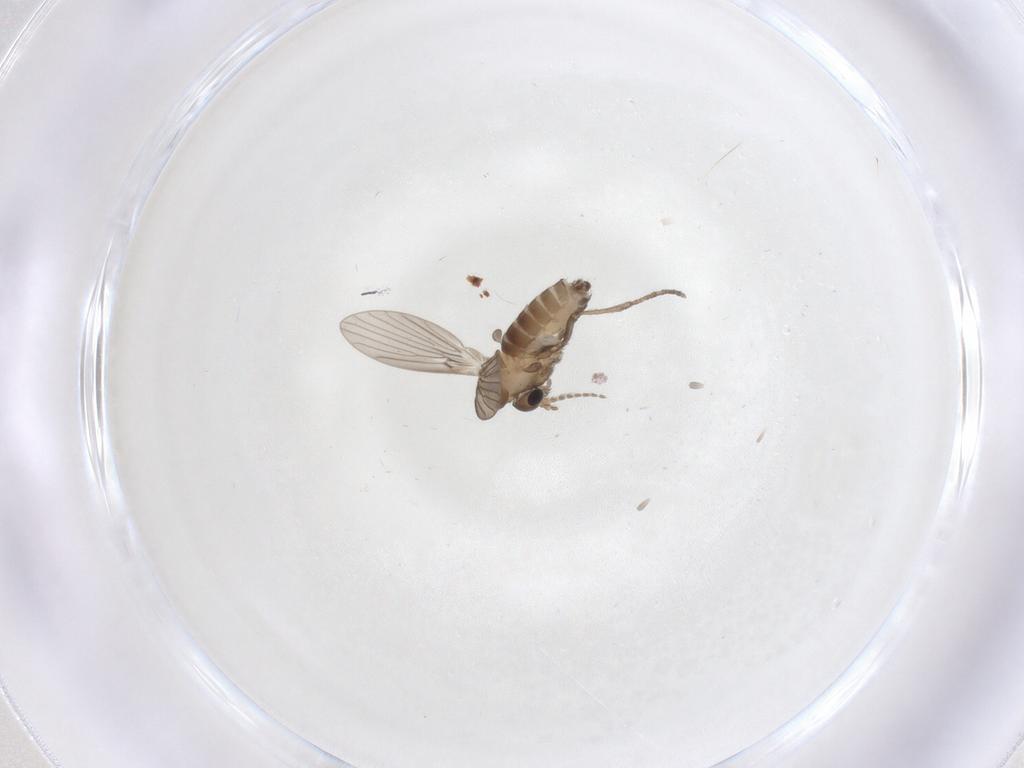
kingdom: Animalia
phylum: Arthropoda
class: Insecta
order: Diptera
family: Psychodidae
